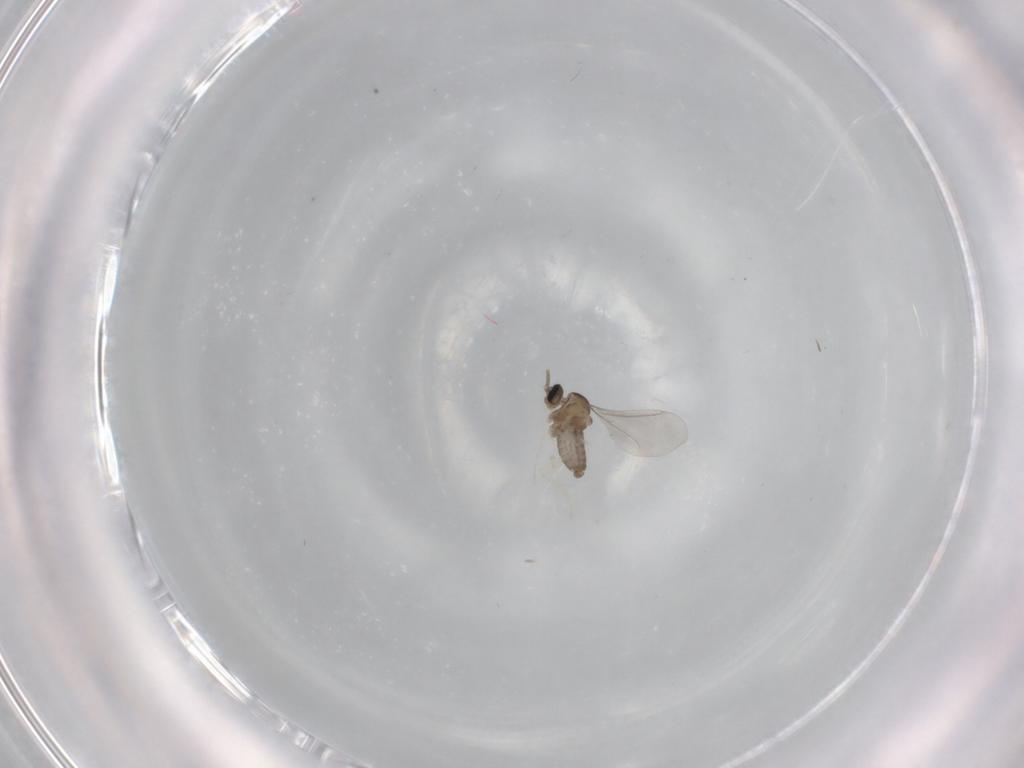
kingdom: Animalia
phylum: Arthropoda
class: Insecta
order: Diptera
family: Cecidomyiidae
